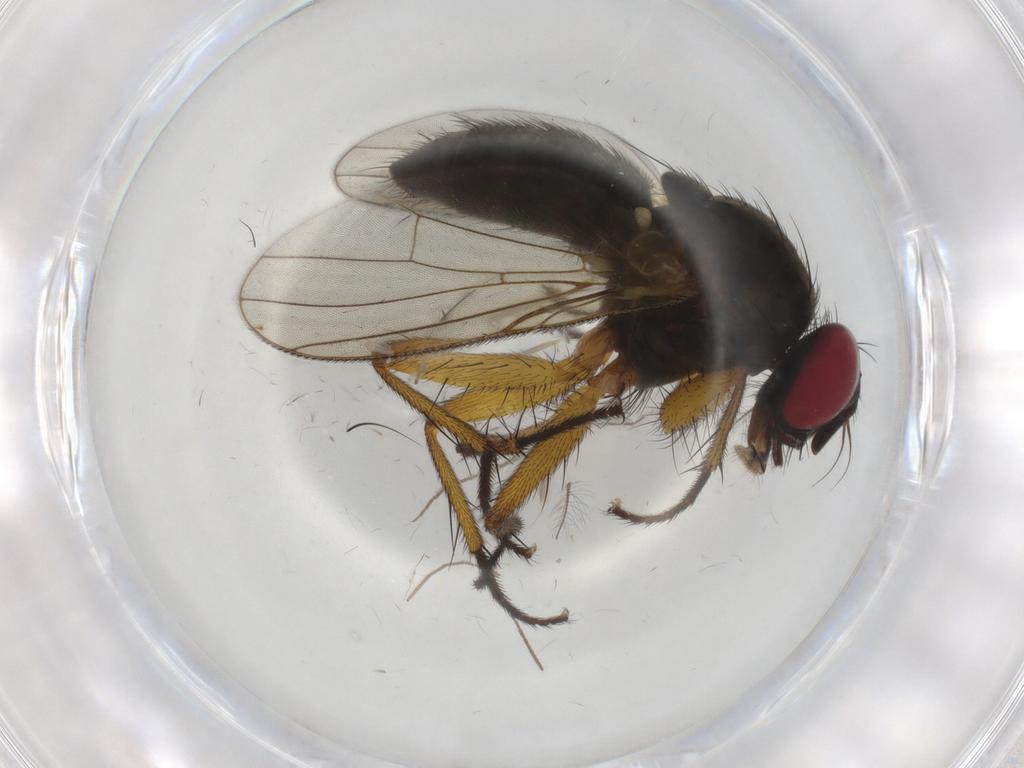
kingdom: Animalia
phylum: Arthropoda
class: Insecta
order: Diptera
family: Muscidae
